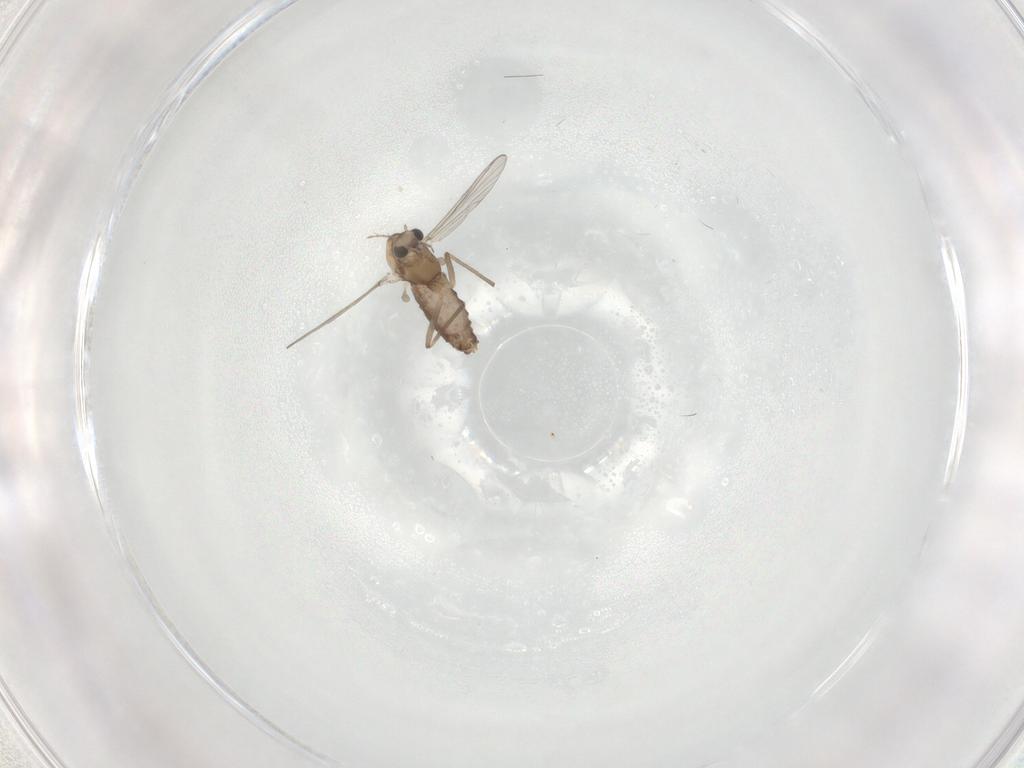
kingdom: Animalia
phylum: Arthropoda
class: Insecta
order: Diptera
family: Chironomidae
